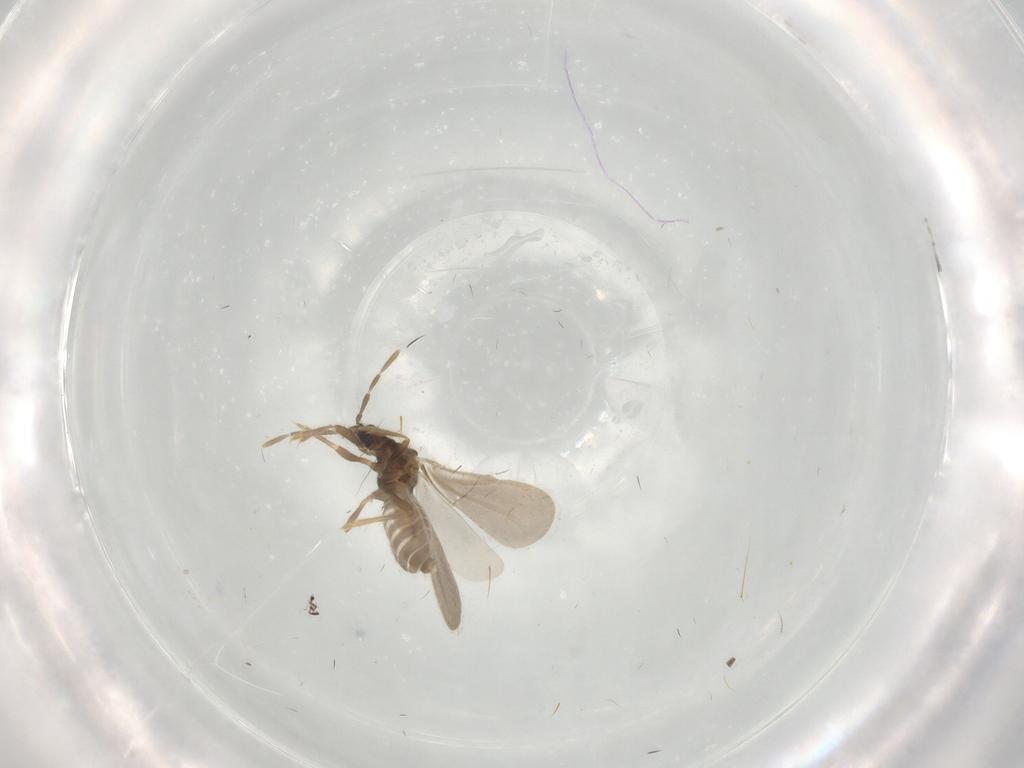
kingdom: Animalia
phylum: Arthropoda
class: Insecta
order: Hemiptera
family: Enicocephalidae
